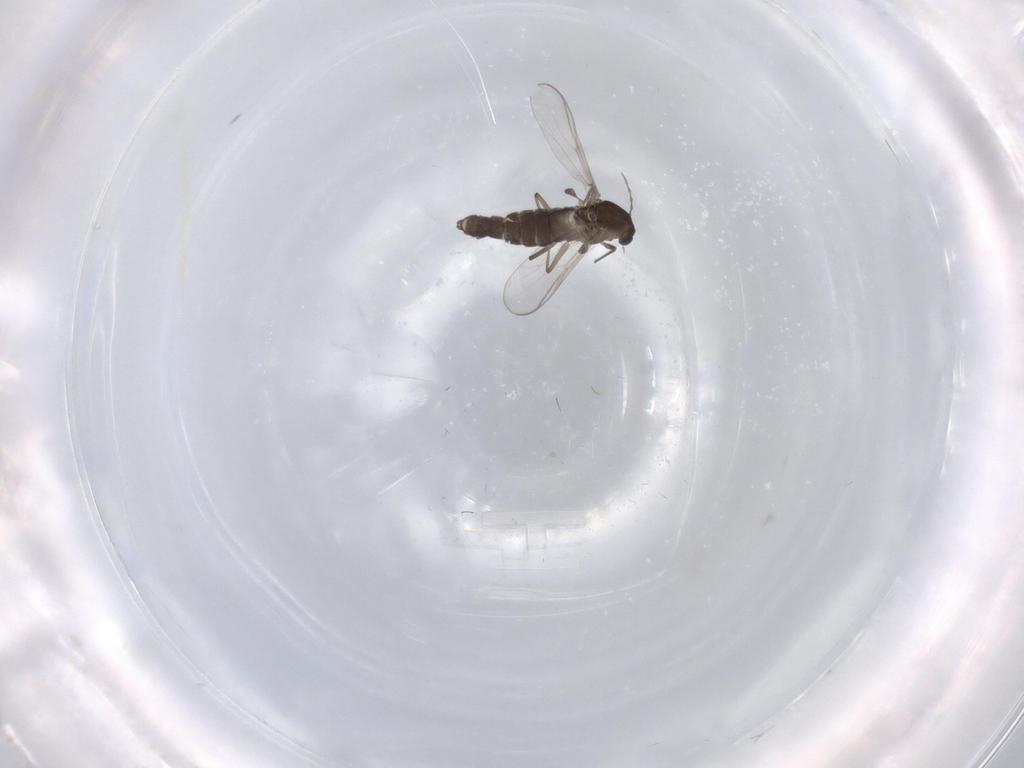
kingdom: Animalia
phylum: Arthropoda
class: Insecta
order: Diptera
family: Chironomidae
